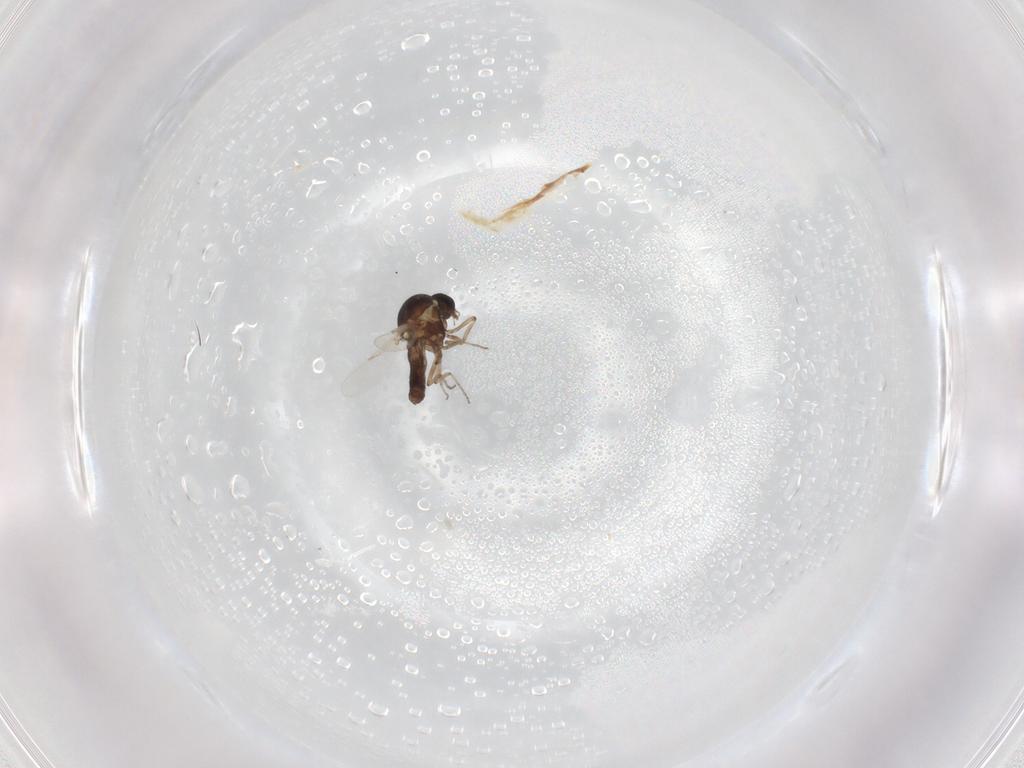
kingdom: Animalia
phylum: Arthropoda
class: Insecta
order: Diptera
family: Ceratopogonidae
